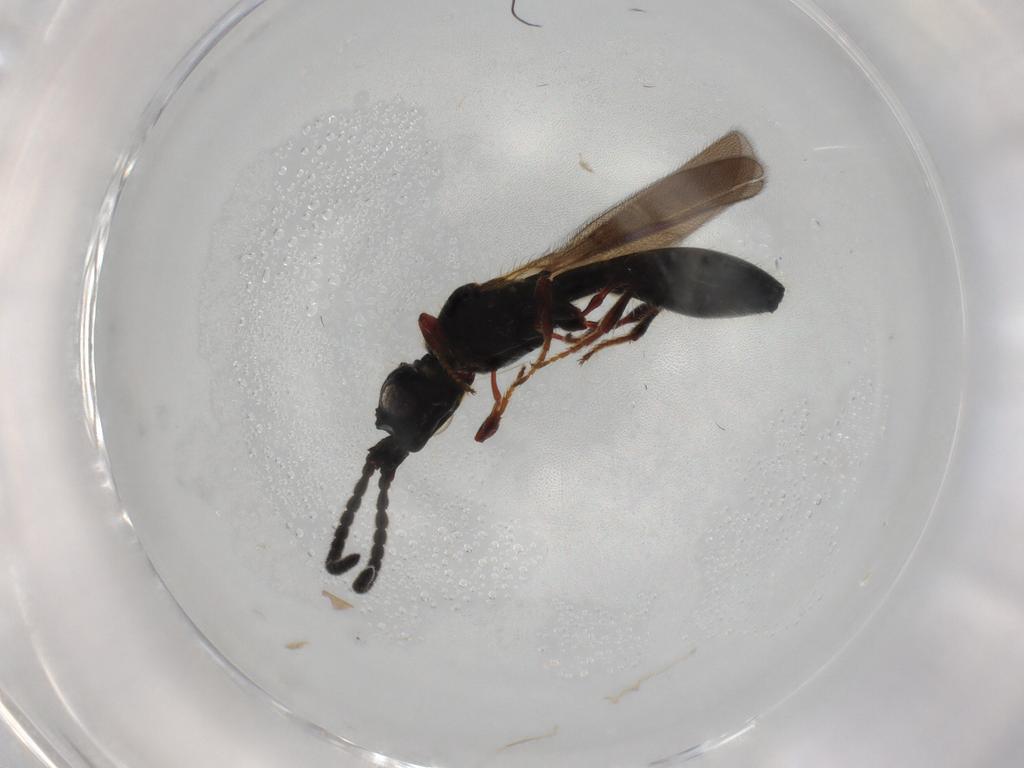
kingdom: Animalia
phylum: Arthropoda
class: Insecta
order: Hymenoptera
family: Diapriidae
